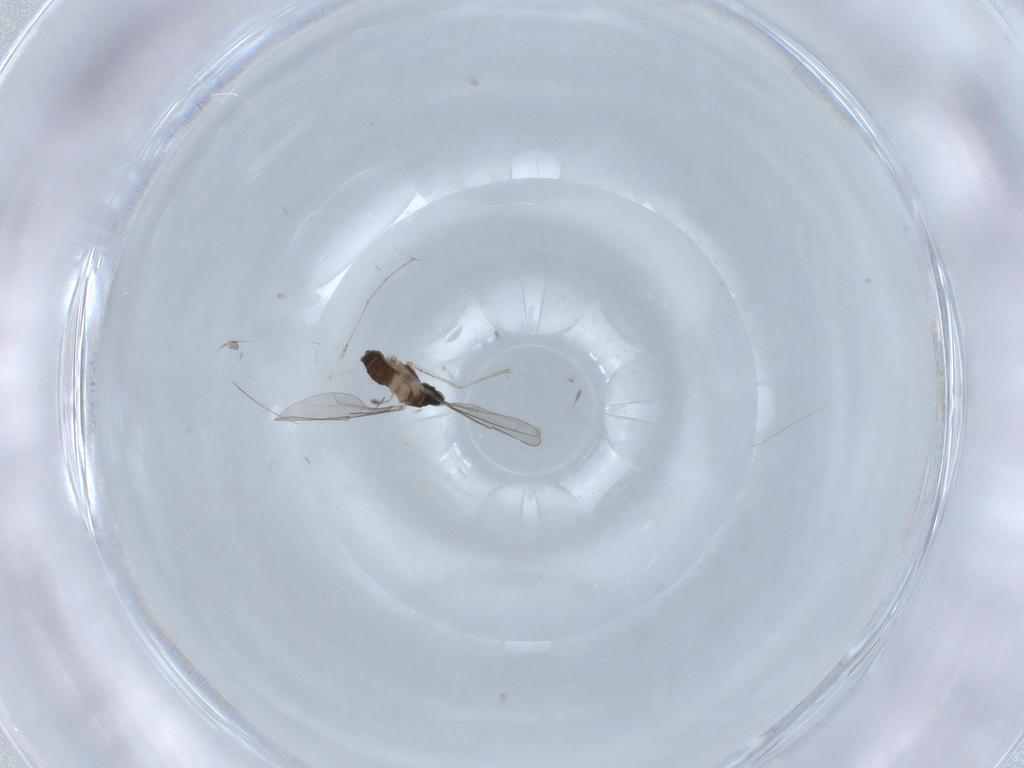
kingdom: Animalia
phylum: Arthropoda
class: Insecta
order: Diptera
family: Cecidomyiidae
